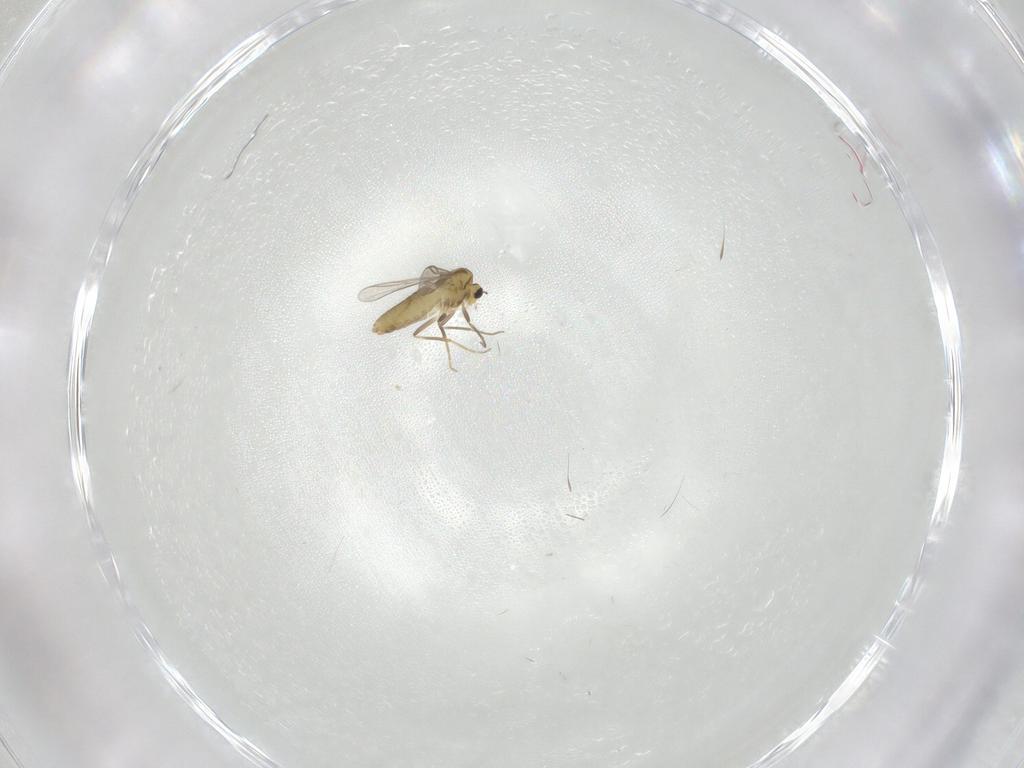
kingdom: Animalia
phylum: Arthropoda
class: Insecta
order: Diptera
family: Chironomidae
